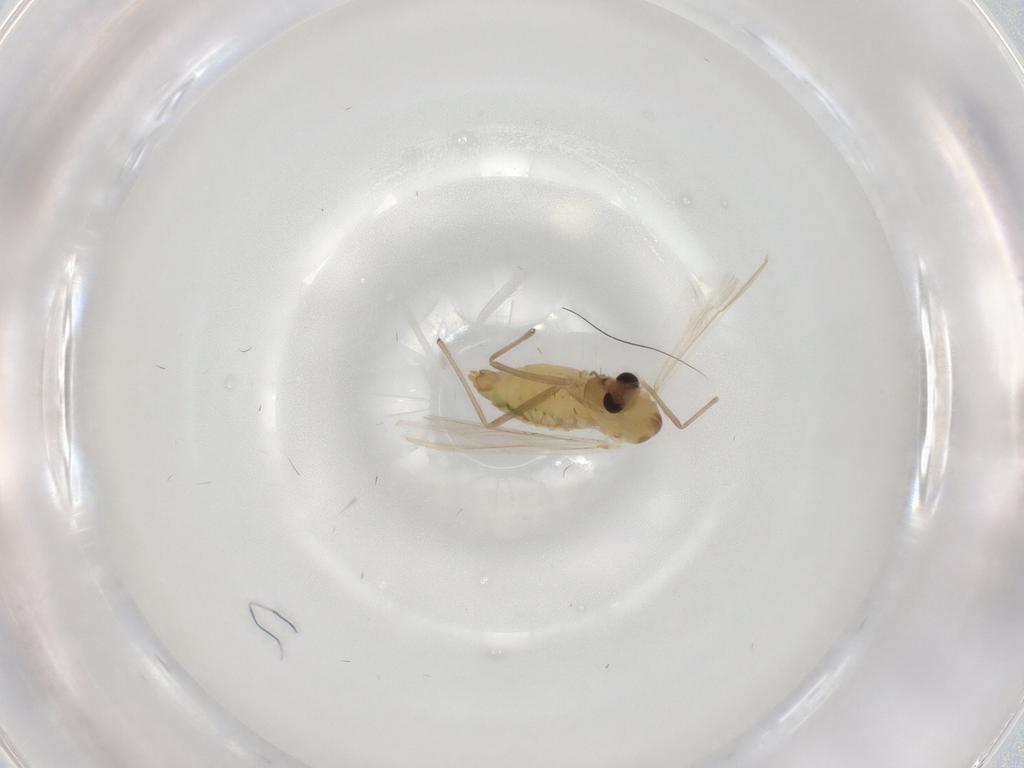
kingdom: Animalia
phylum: Arthropoda
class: Insecta
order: Diptera
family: Chironomidae
